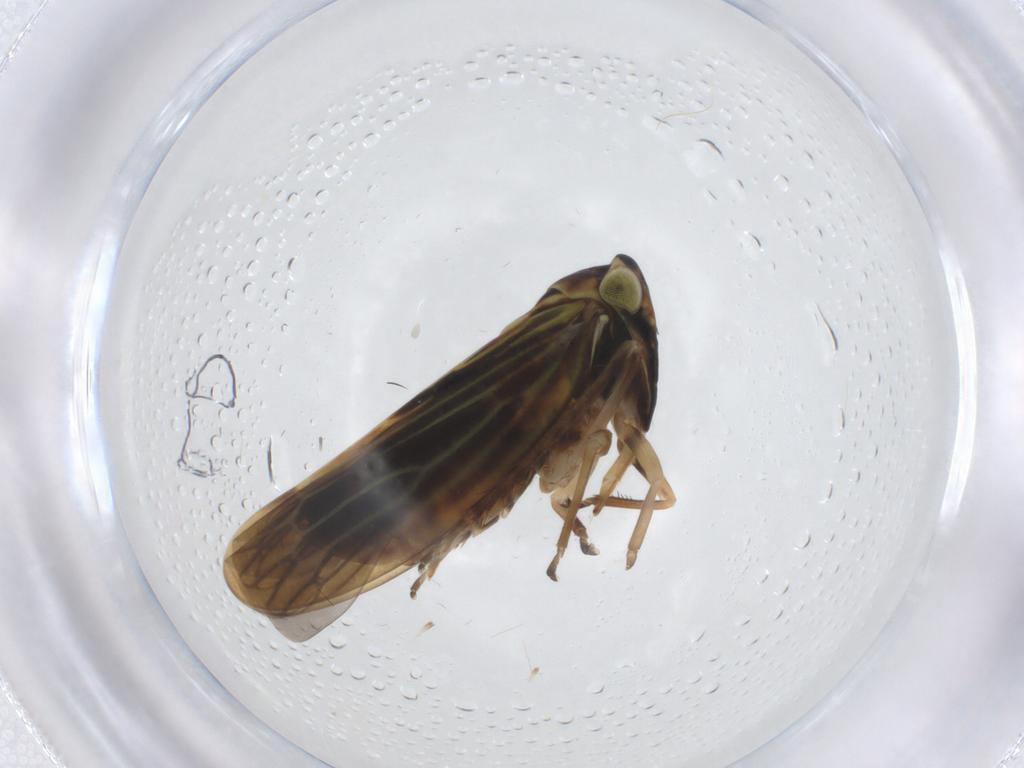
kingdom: Animalia
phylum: Arthropoda
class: Insecta
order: Hemiptera
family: Cicadellidae
